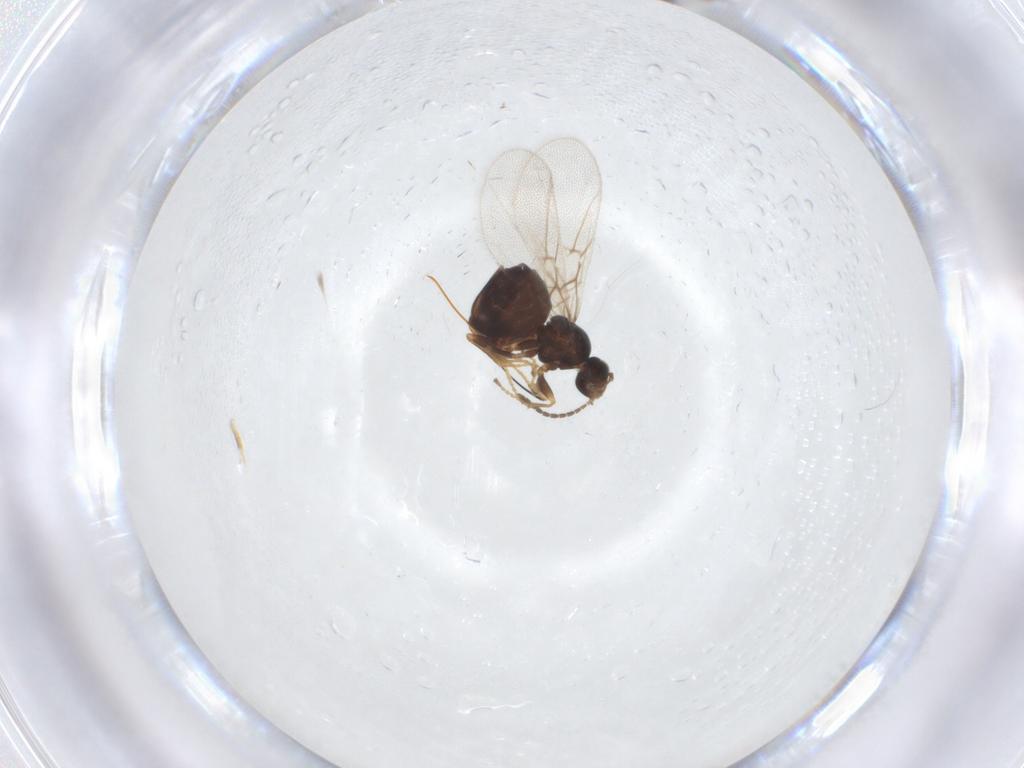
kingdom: Animalia
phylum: Arthropoda
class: Insecta
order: Hymenoptera
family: Cynipidae
